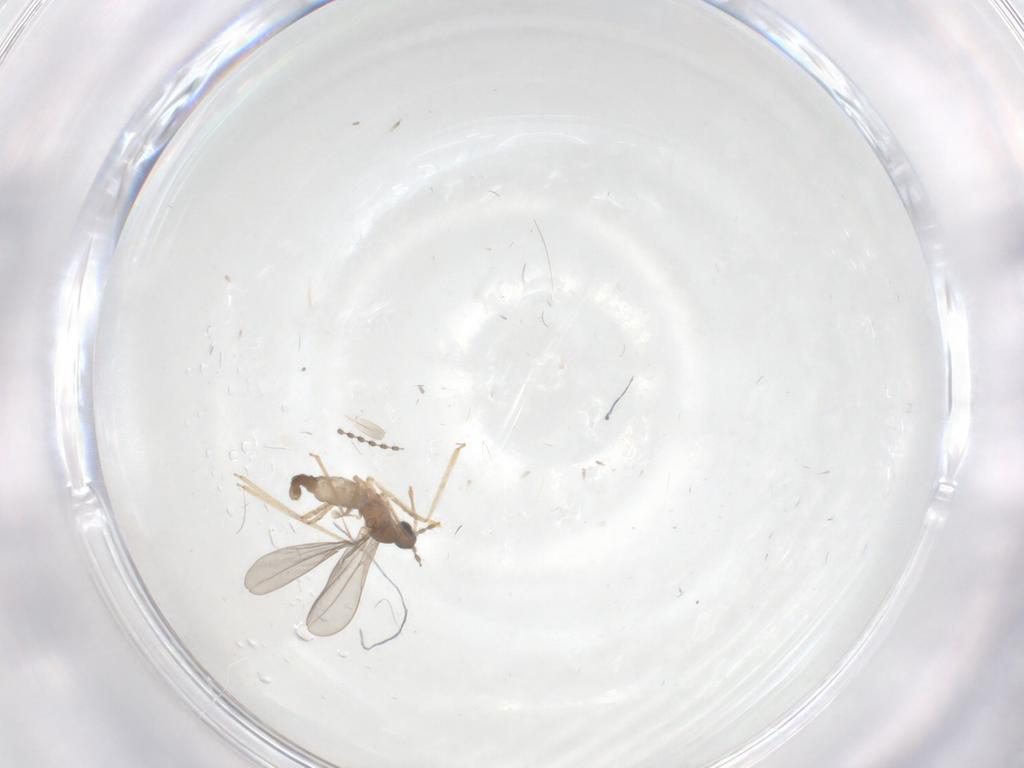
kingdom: Animalia
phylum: Arthropoda
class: Insecta
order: Diptera
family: Cecidomyiidae
